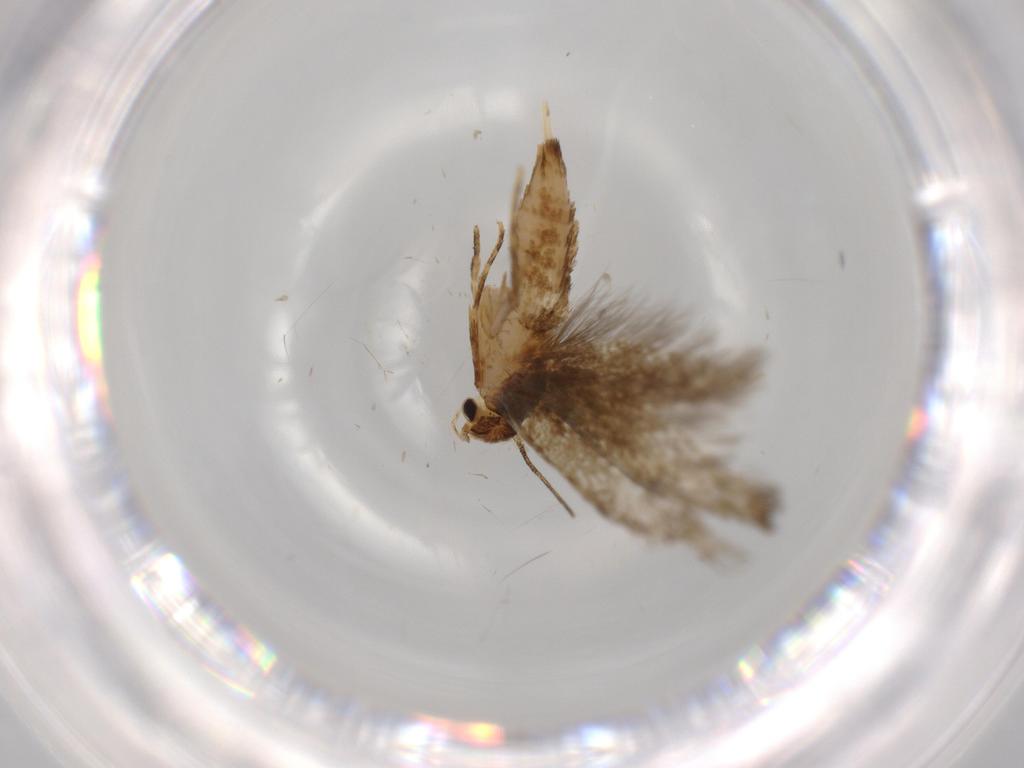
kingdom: Animalia
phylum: Arthropoda
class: Insecta
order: Lepidoptera
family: Tineidae
